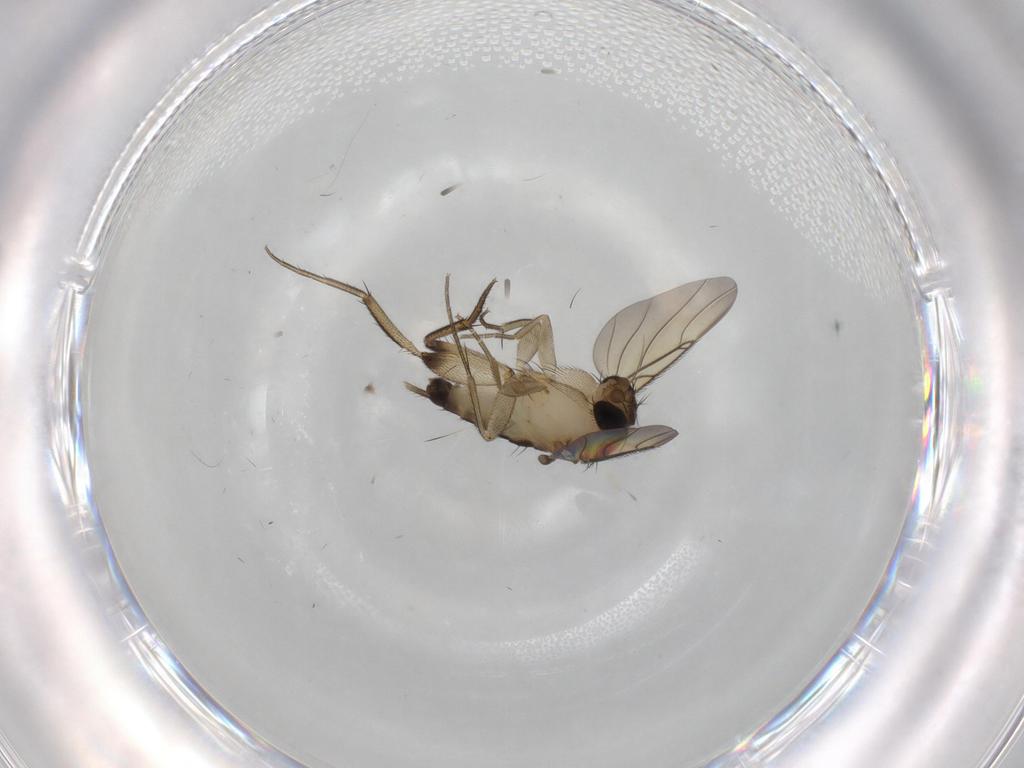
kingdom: Animalia
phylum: Arthropoda
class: Insecta
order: Diptera
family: Phoridae
